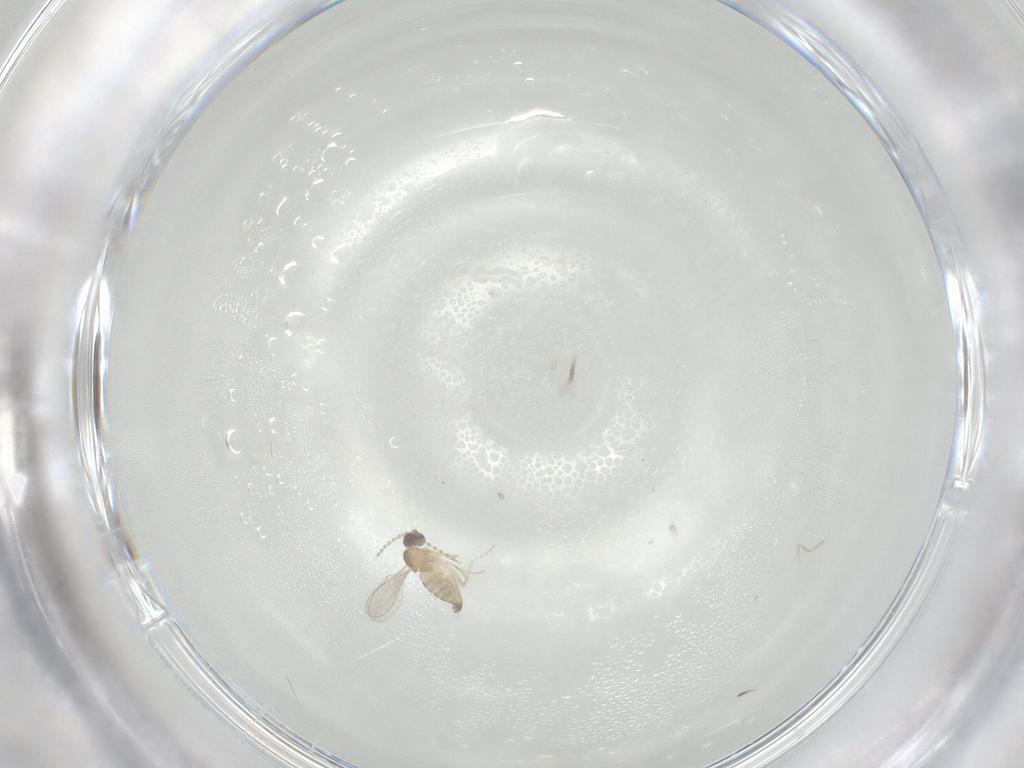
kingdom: Animalia
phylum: Arthropoda
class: Insecta
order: Diptera
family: Cecidomyiidae
